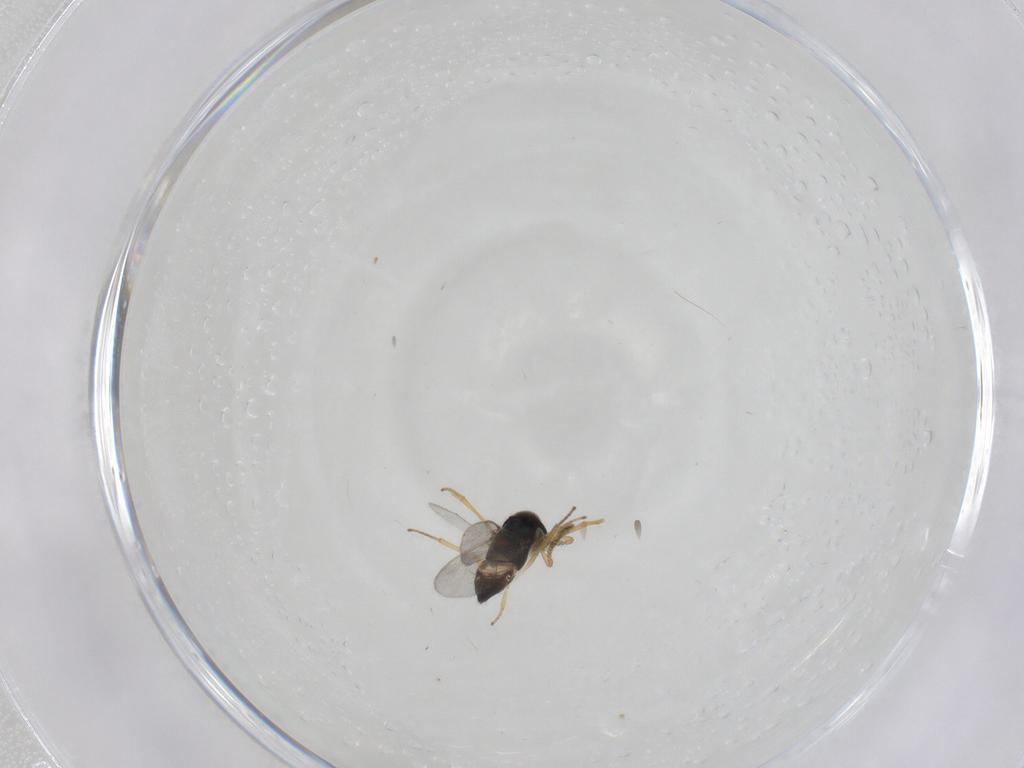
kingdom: Animalia
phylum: Arthropoda
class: Insecta
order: Hymenoptera
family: Encyrtidae
